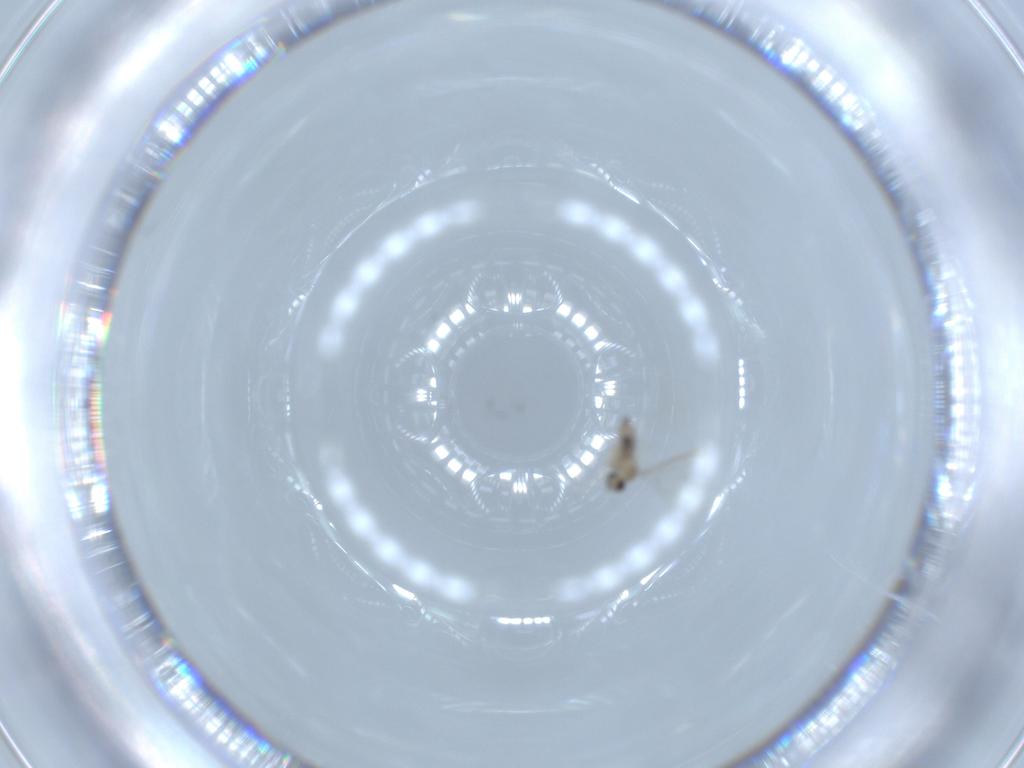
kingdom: Animalia
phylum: Arthropoda
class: Insecta
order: Diptera
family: Cecidomyiidae
